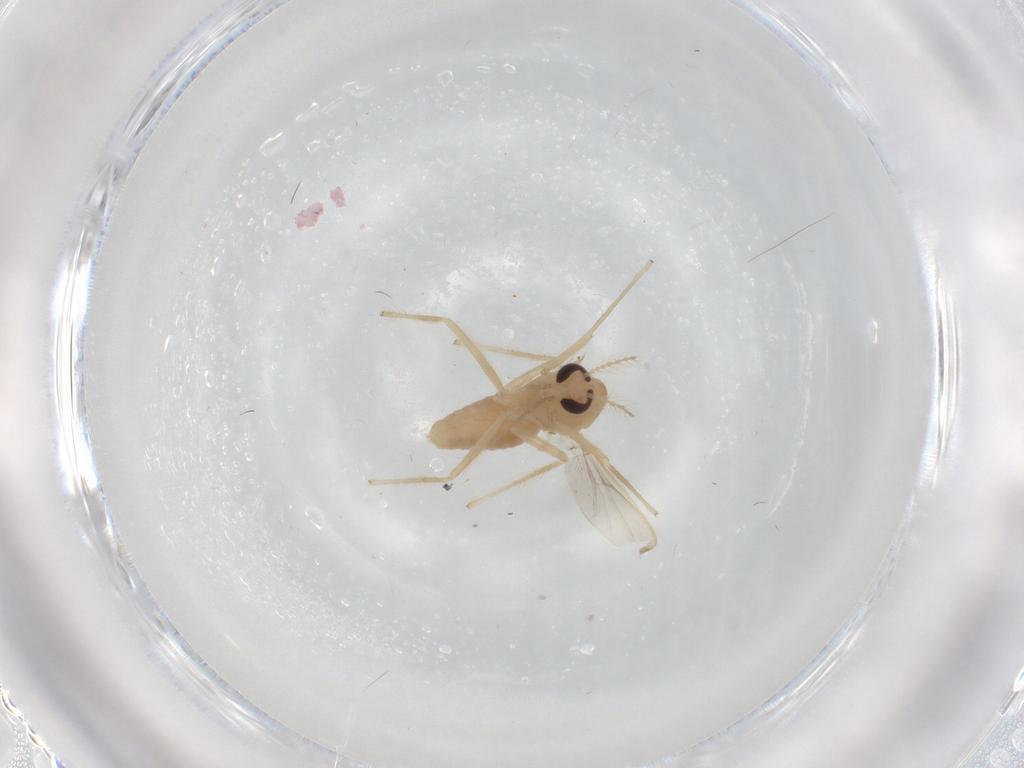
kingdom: Animalia
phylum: Arthropoda
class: Insecta
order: Diptera
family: Chironomidae
